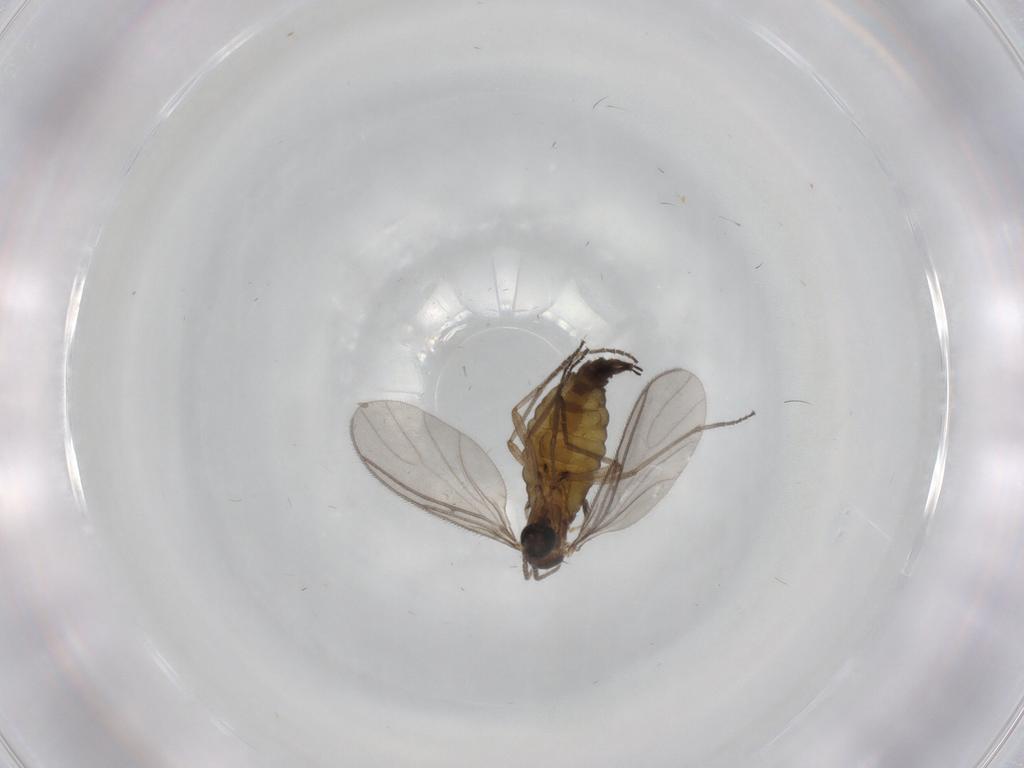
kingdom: Animalia
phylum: Arthropoda
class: Insecta
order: Diptera
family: Sciaridae
